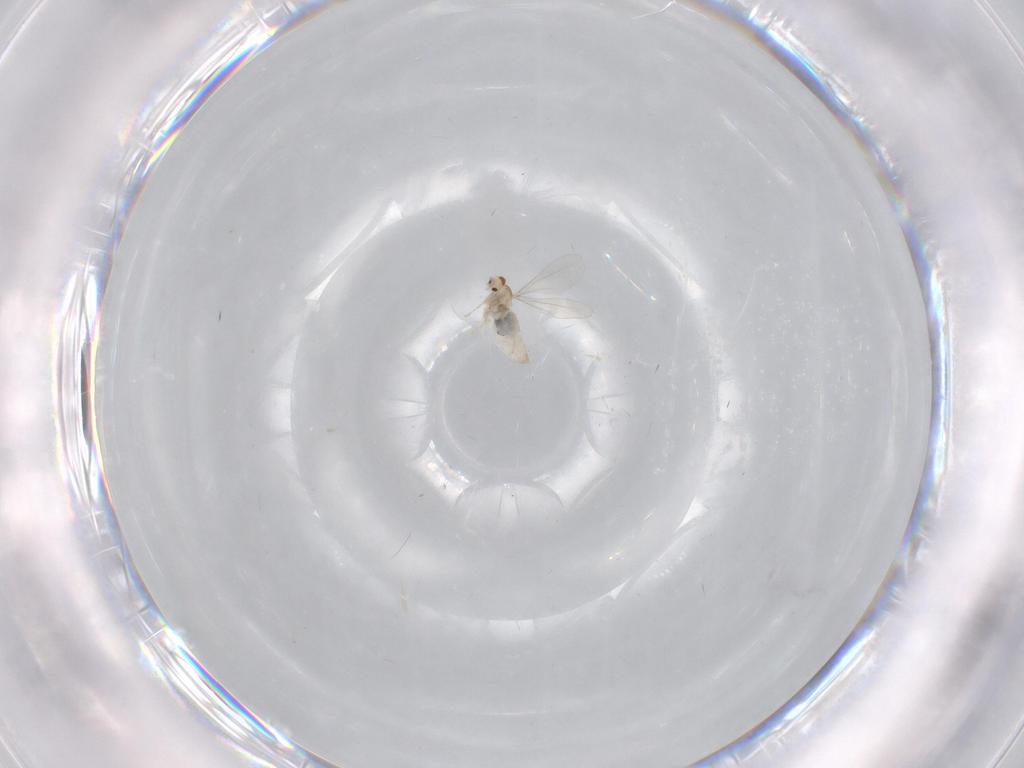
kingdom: Animalia
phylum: Arthropoda
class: Insecta
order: Diptera
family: Cecidomyiidae
